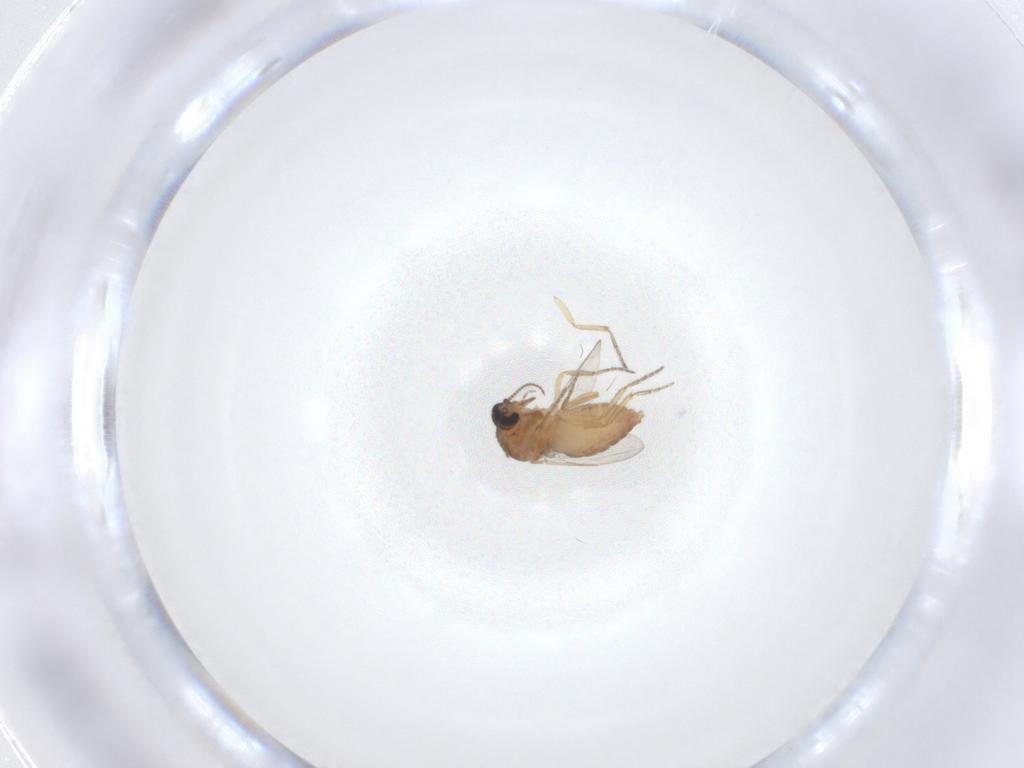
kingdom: Animalia
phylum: Arthropoda
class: Insecta
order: Diptera
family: Ceratopogonidae
